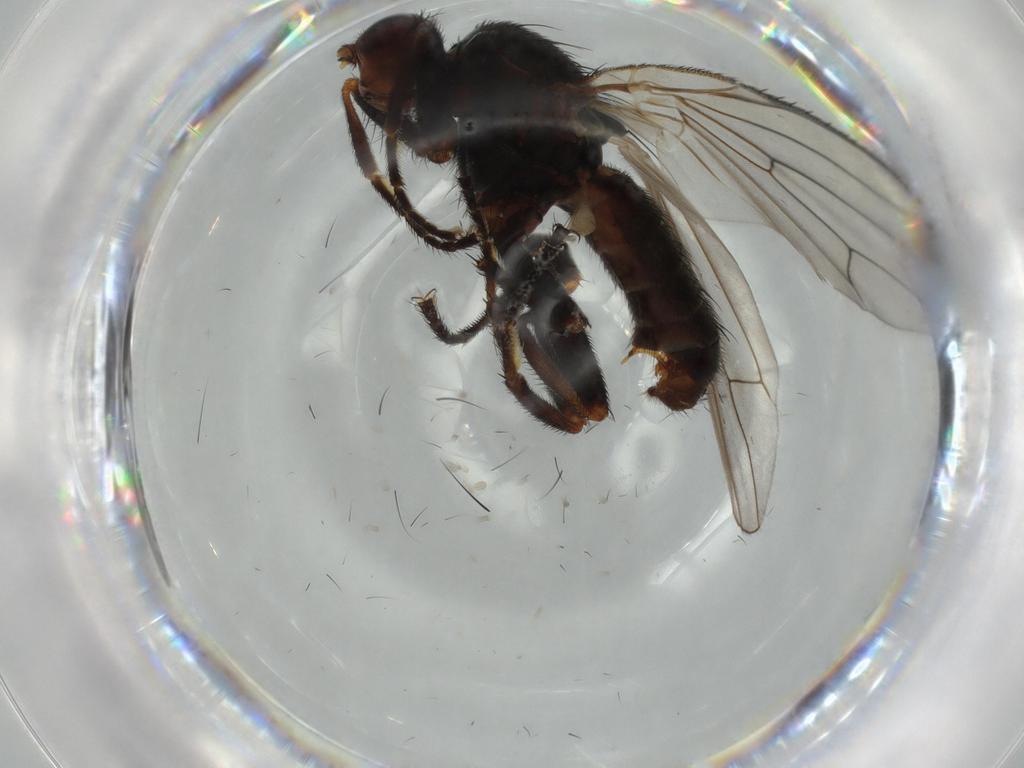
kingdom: Animalia
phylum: Arthropoda
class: Insecta
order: Diptera
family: Heleomyzidae
